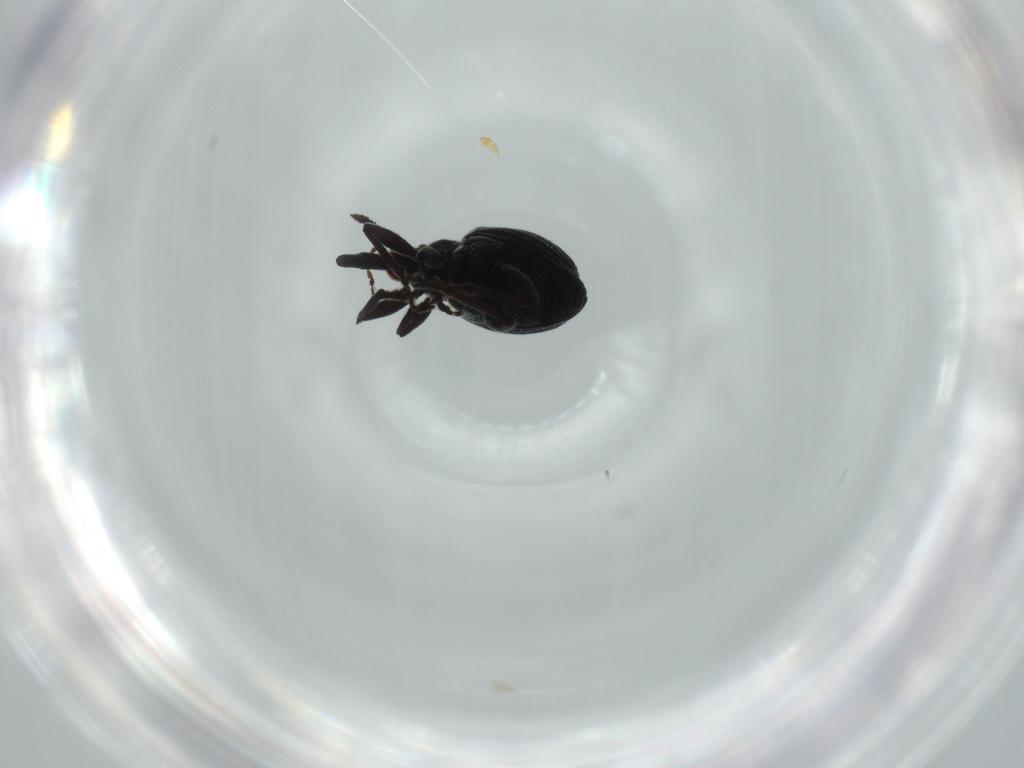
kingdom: Animalia
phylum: Arthropoda
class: Insecta
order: Coleoptera
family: Brentidae
